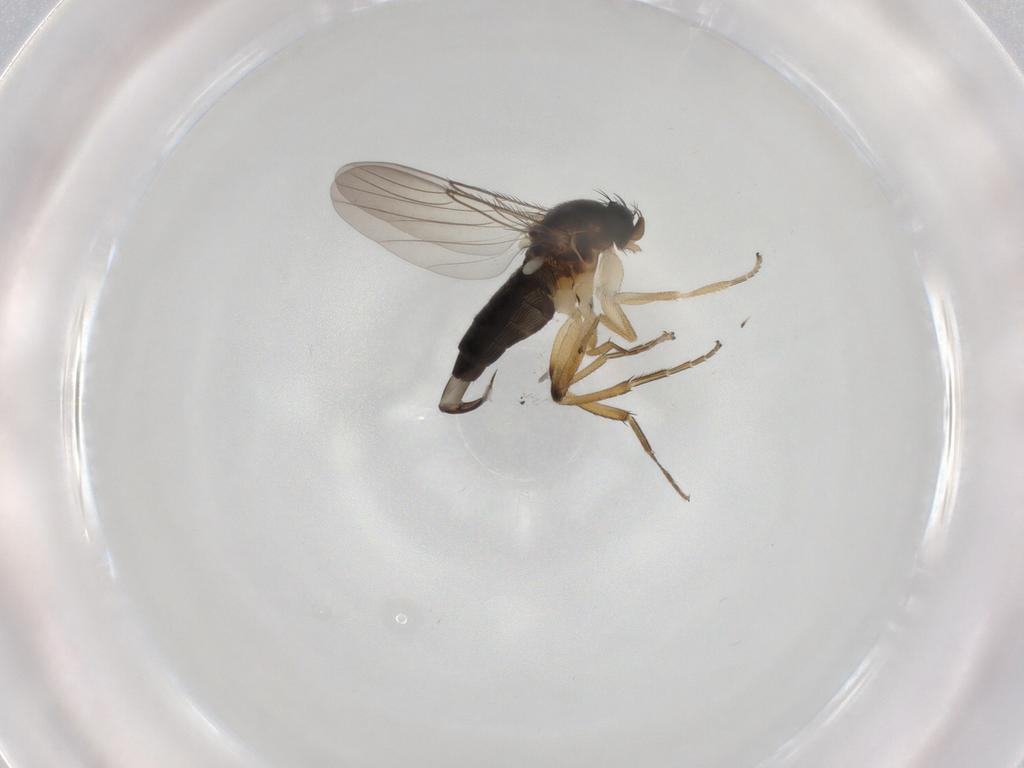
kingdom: Animalia
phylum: Arthropoda
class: Insecta
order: Diptera
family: Phoridae
